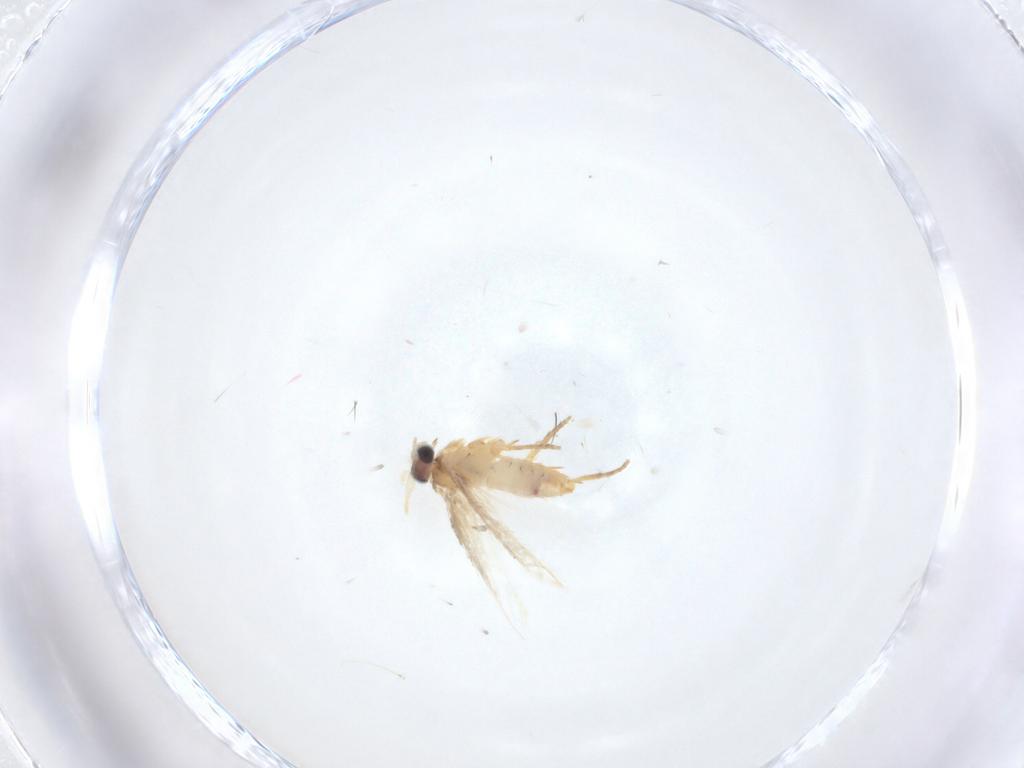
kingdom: Animalia
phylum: Arthropoda
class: Insecta
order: Lepidoptera
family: Nepticulidae
